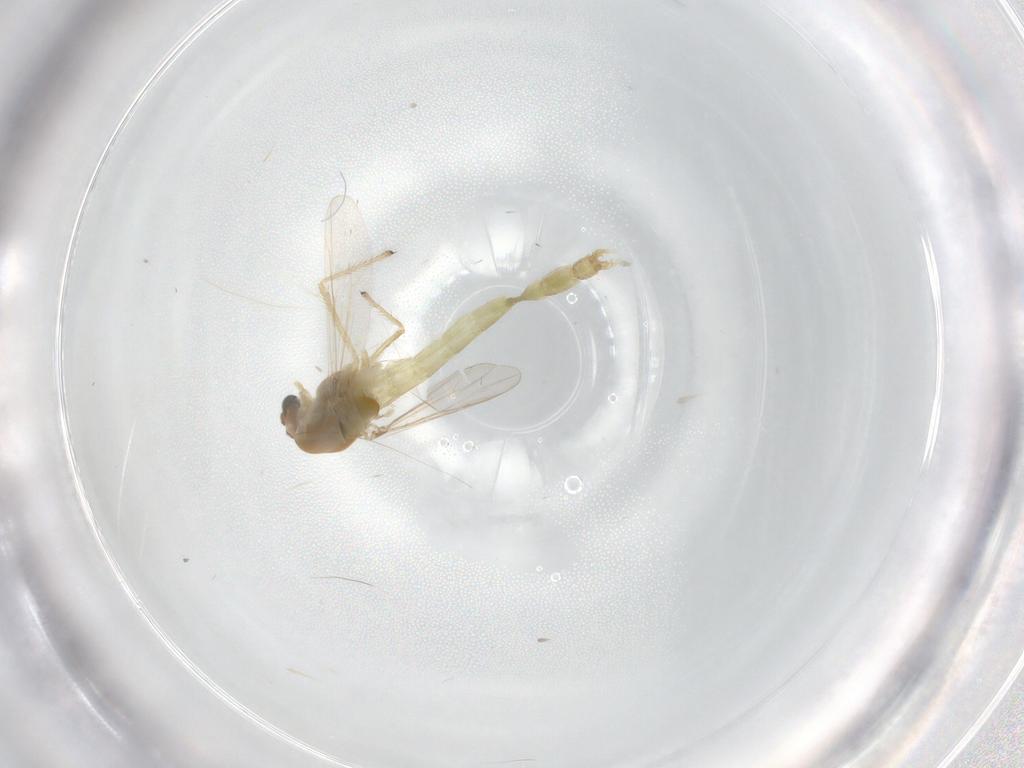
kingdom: Animalia
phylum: Arthropoda
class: Insecta
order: Diptera
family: Chironomidae
